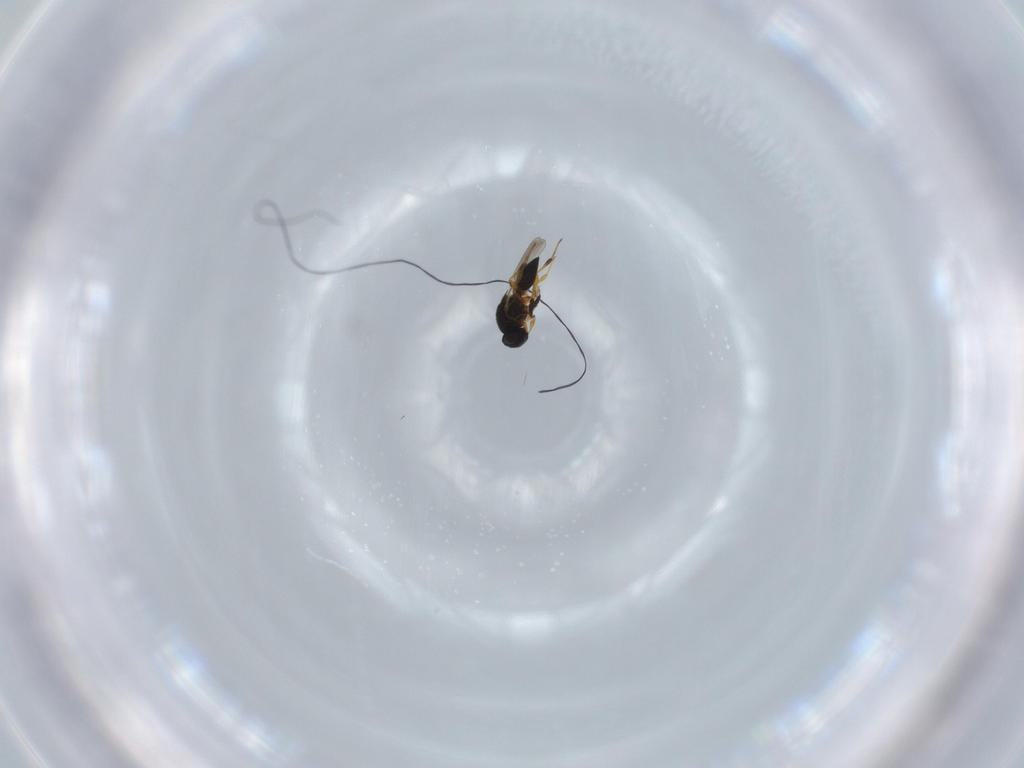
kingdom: Animalia
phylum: Arthropoda
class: Insecta
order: Hymenoptera
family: Platygastridae
